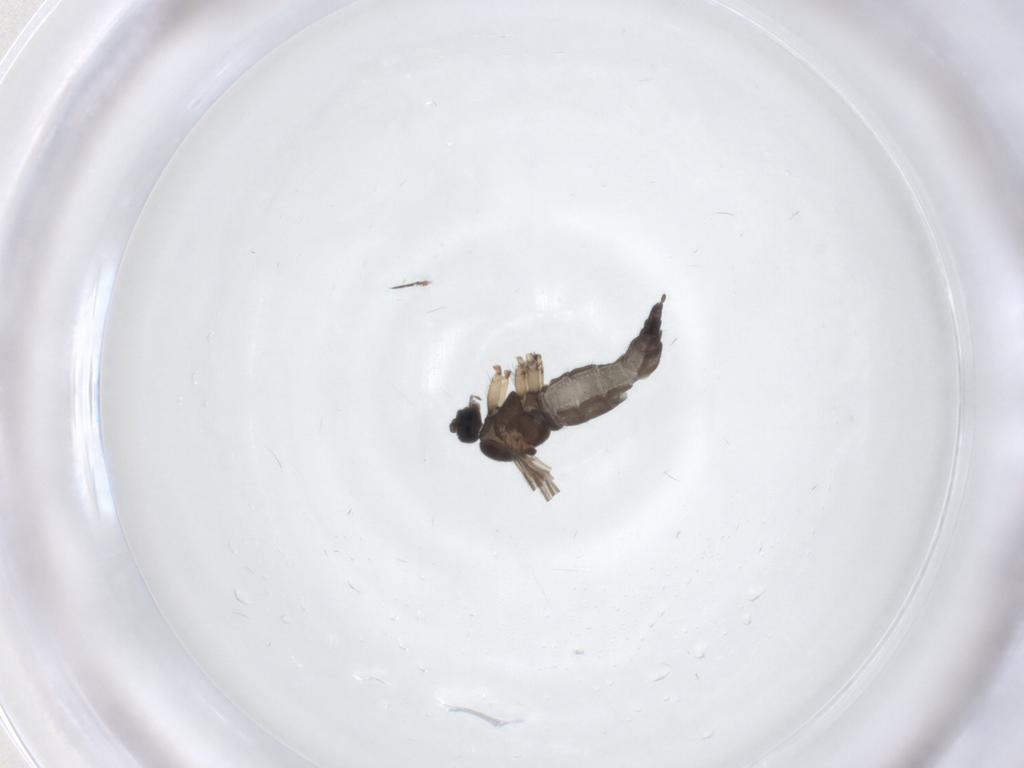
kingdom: Animalia
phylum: Arthropoda
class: Insecta
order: Diptera
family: Sciaridae
